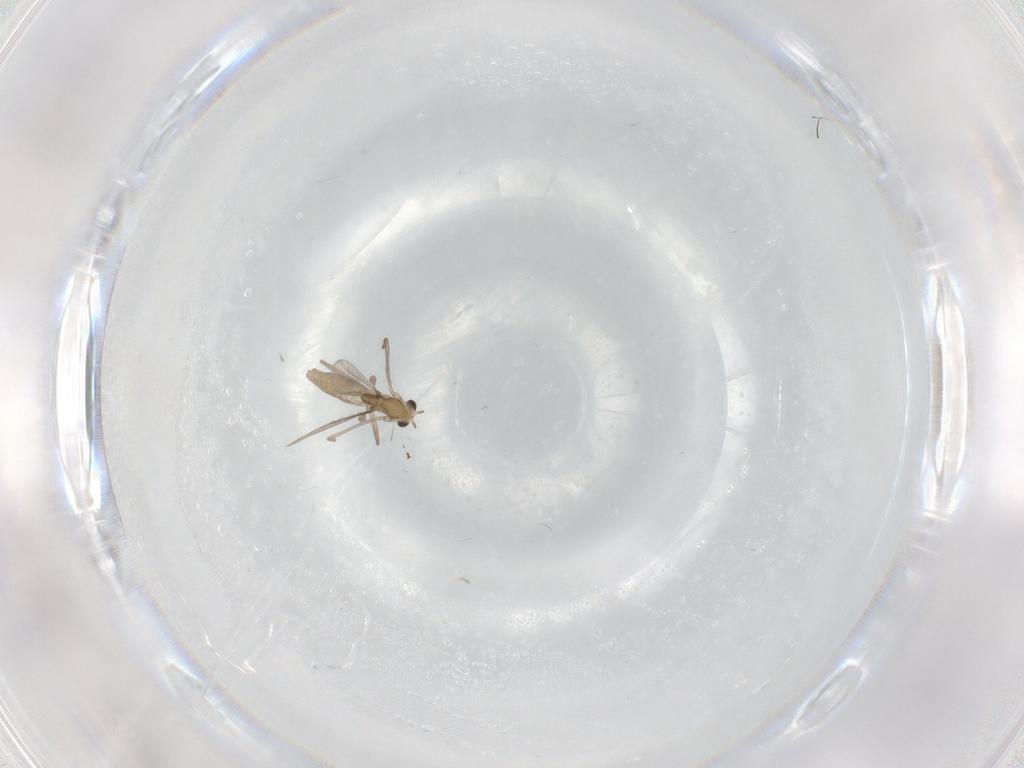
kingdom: Animalia
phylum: Arthropoda
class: Insecta
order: Diptera
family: Chironomidae
